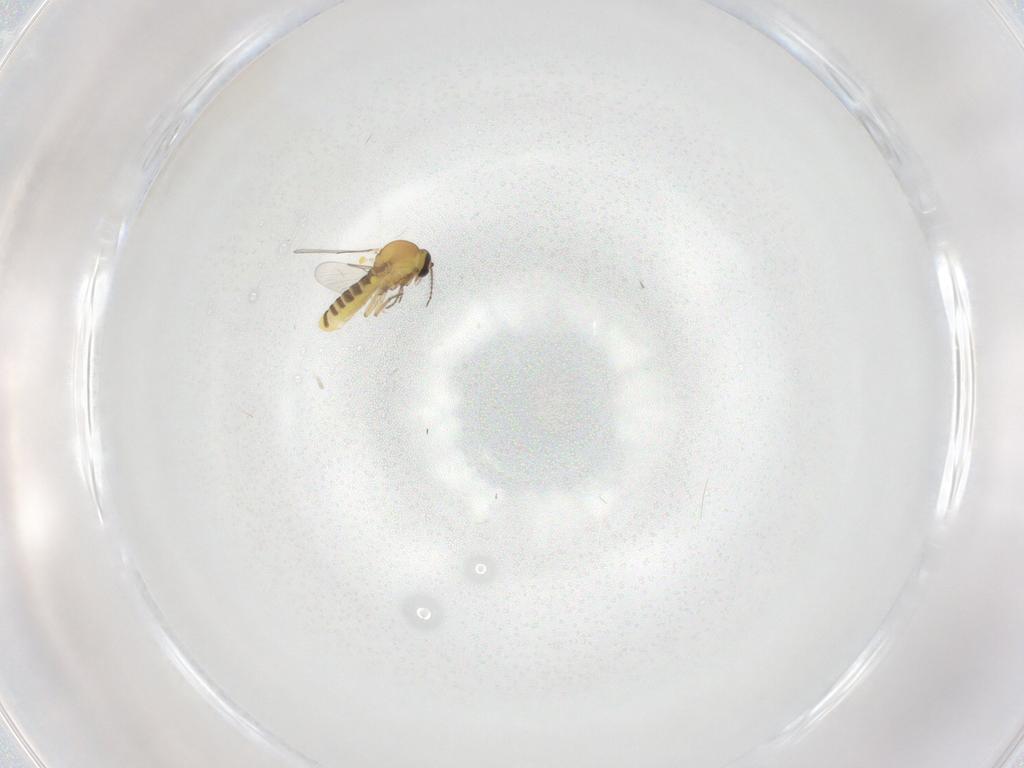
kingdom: Animalia
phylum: Arthropoda
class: Insecta
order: Diptera
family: Ceratopogonidae
